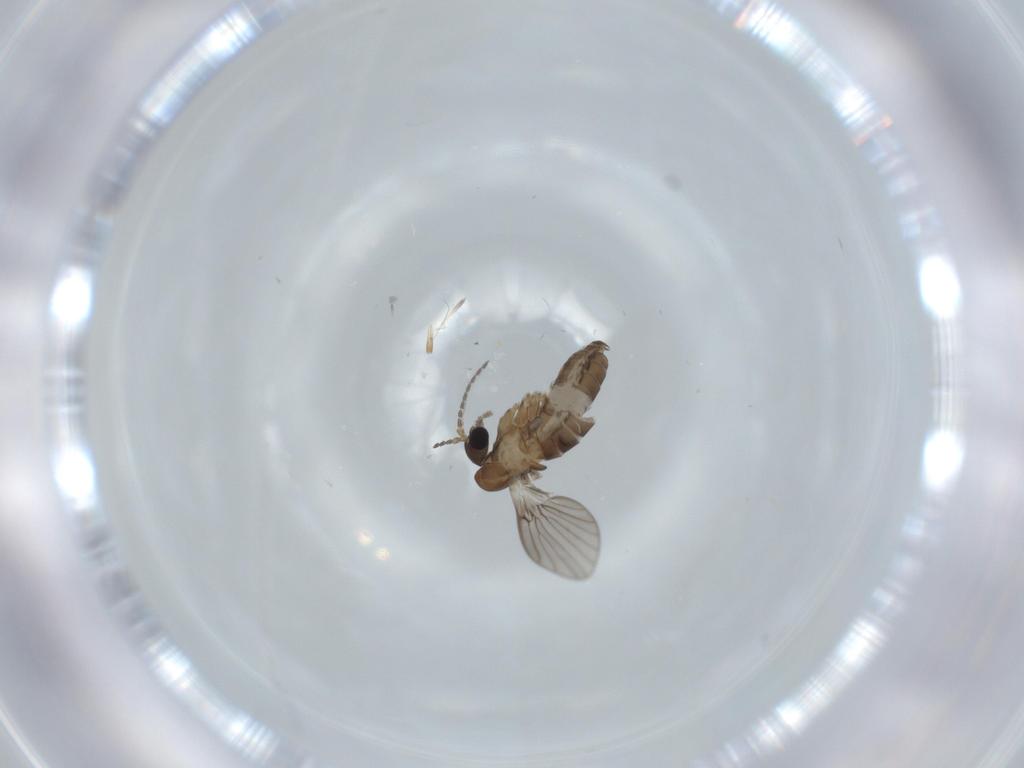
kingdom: Animalia
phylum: Arthropoda
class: Insecta
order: Diptera
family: Psychodidae
